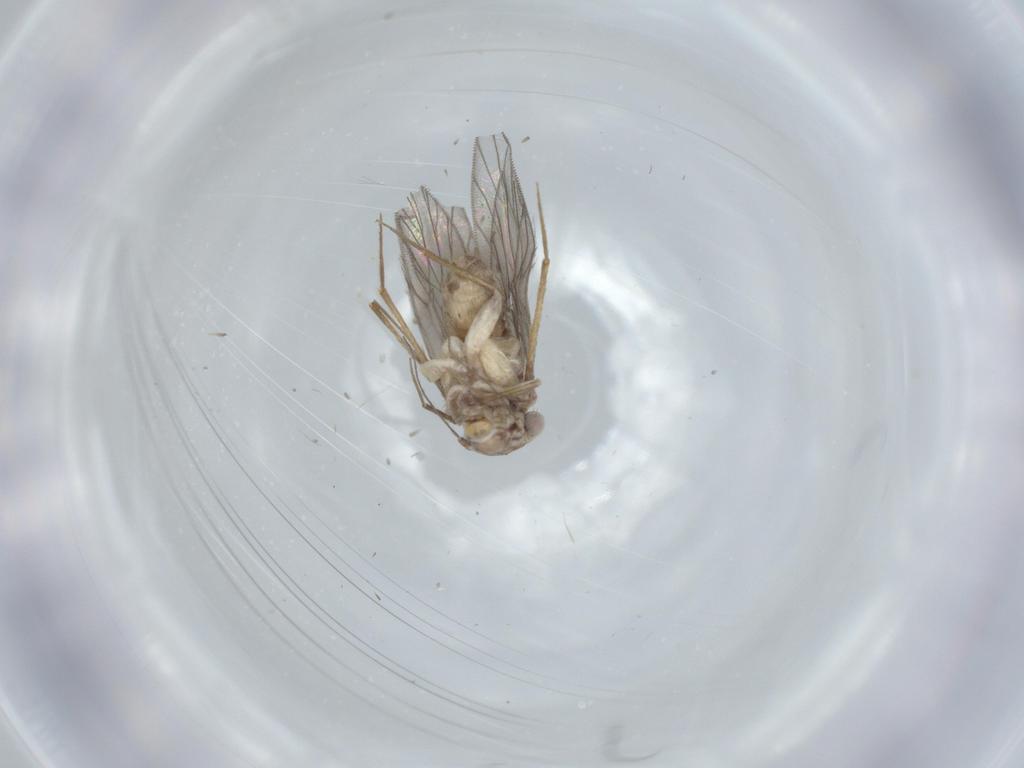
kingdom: Animalia
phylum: Arthropoda
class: Insecta
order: Psocodea
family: Lepidopsocidae
